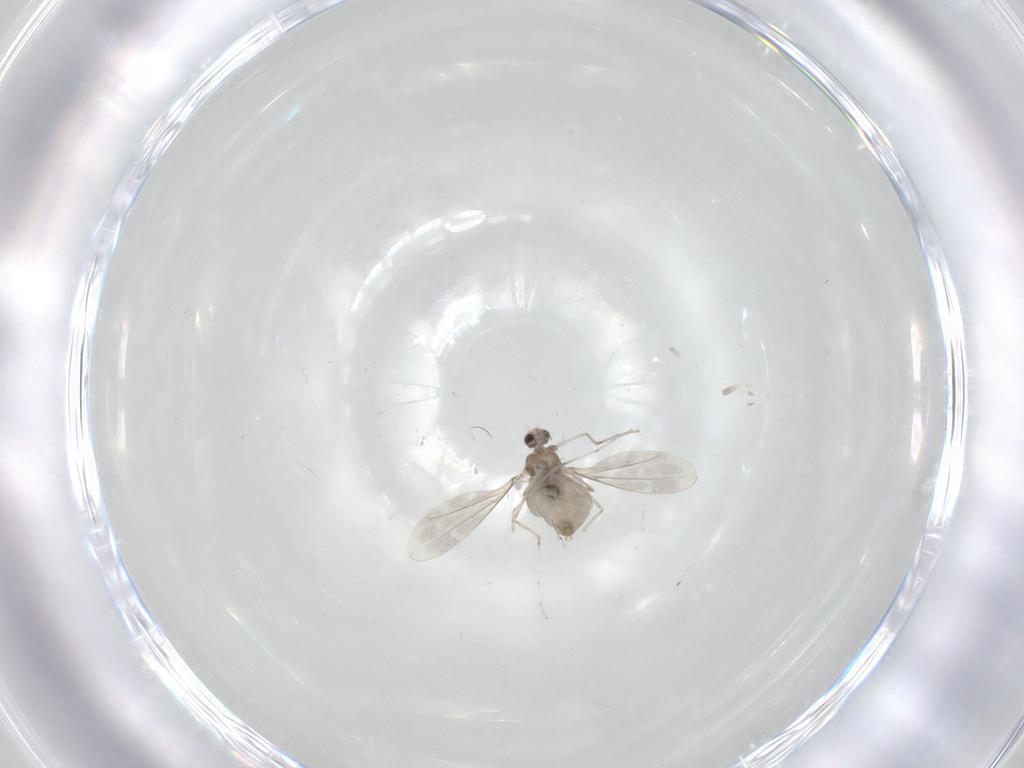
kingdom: Animalia
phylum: Arthropoda
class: Insecta
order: Diptera
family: Cecidomyiidae
